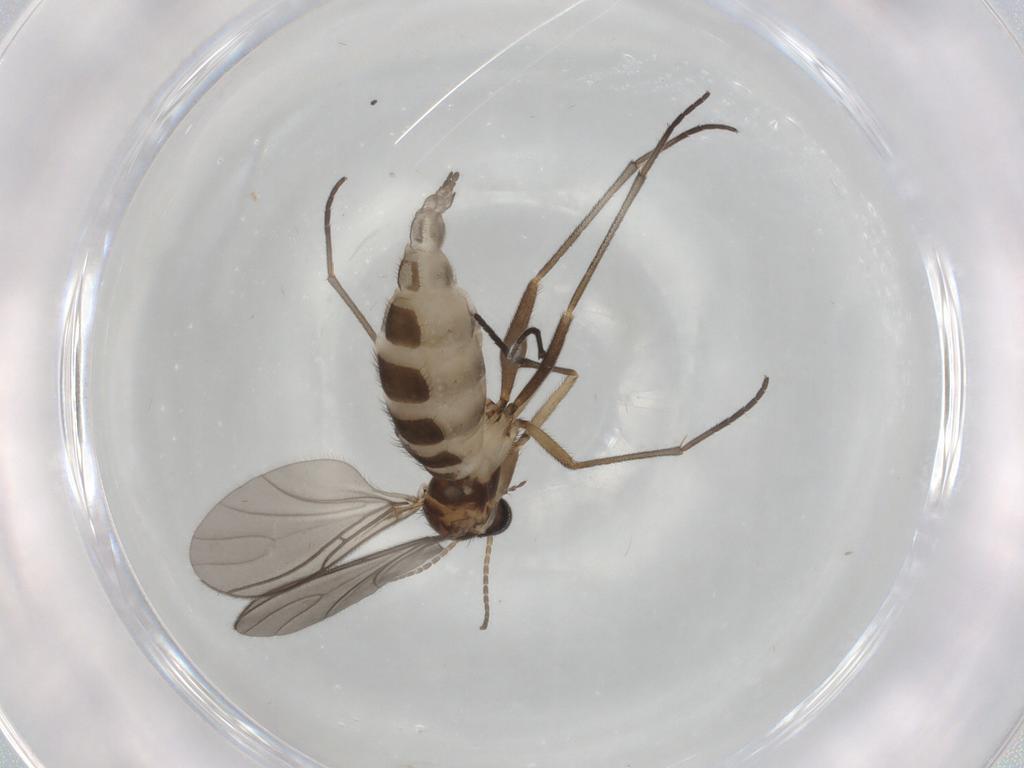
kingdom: Animalia
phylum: Arthropoda
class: Insecta
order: Diptera
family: Sciaridae
